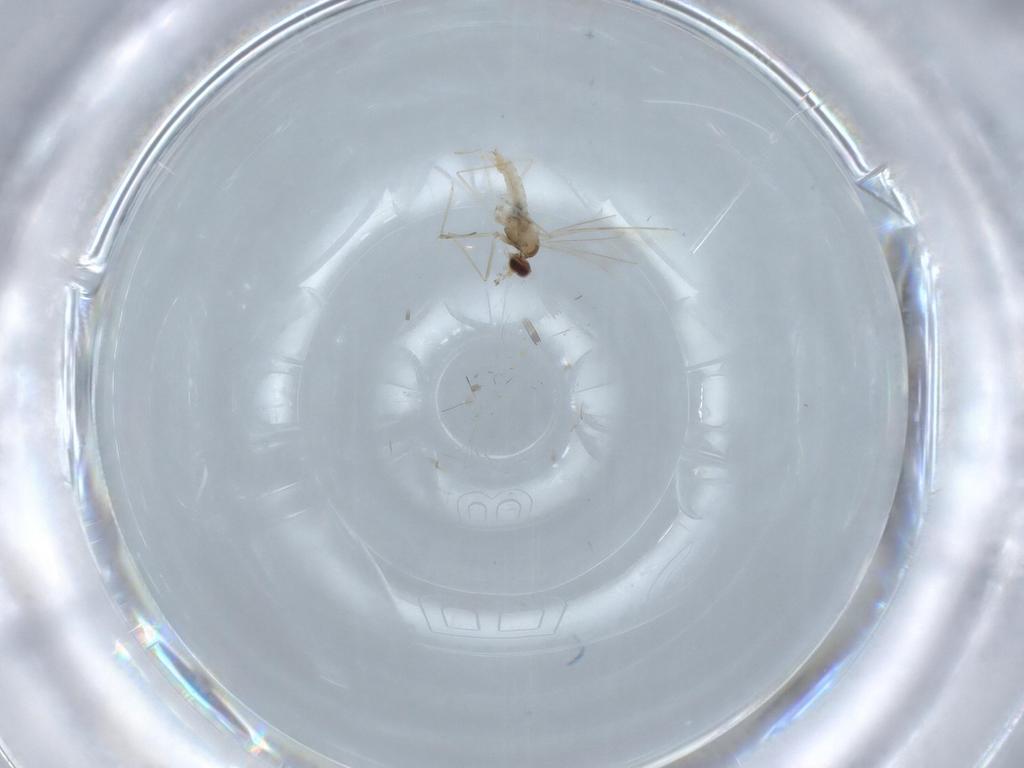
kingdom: Animalia
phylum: Arthropoda
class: Insecta
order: Diptera
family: Cecidomyiidae
